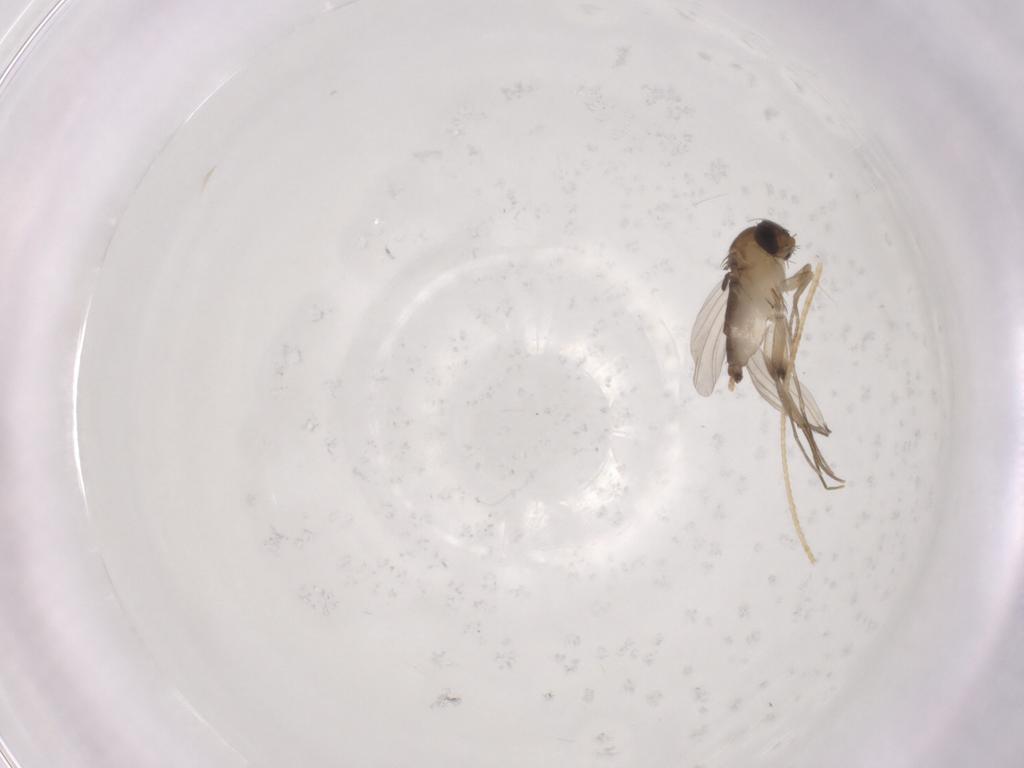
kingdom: Animalia
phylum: Arthropoda
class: Insecta
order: Diptera
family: Phoridae
